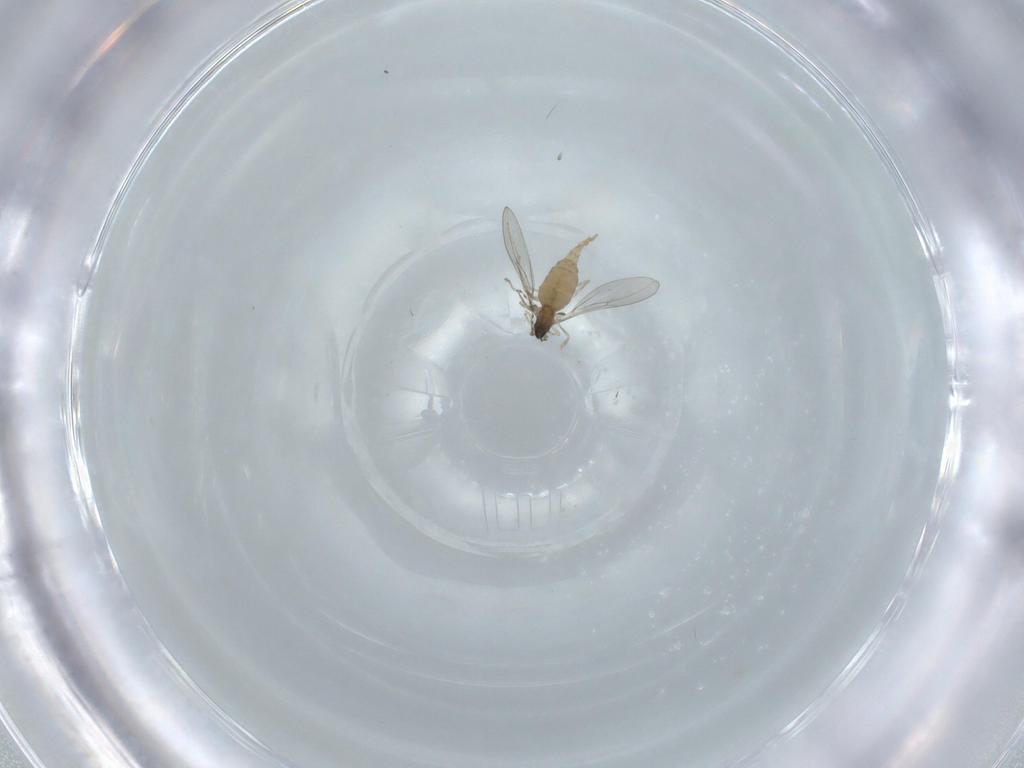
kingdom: Animalia
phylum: Arthropoda
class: Insecta
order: Diptera
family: Cecidomyiidae
